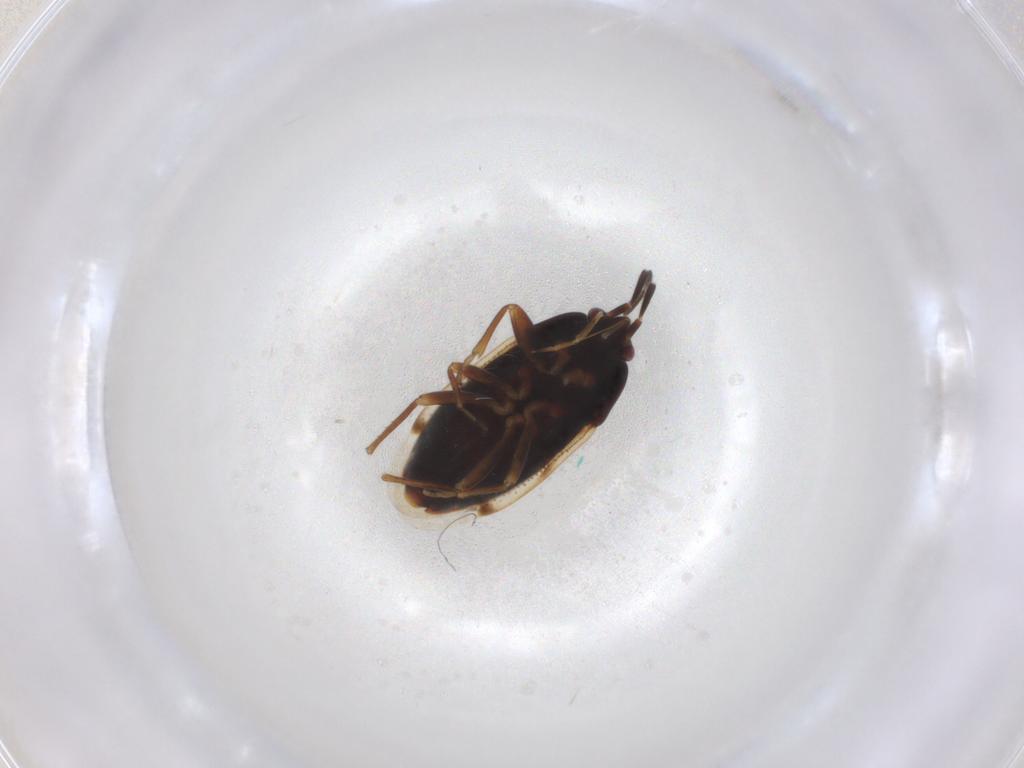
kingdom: Animalia
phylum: Arthropoda
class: Insecta
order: Hemiptera
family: Rhyparochromidae
